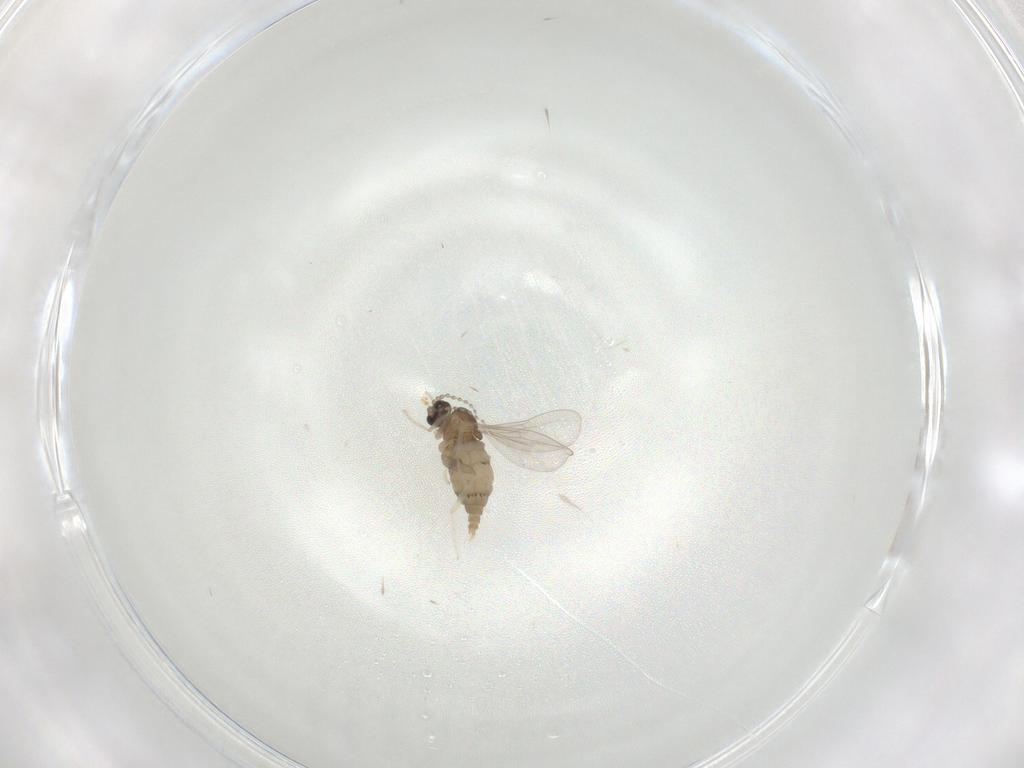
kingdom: Animalia
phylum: Arthropoda
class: Insecta
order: Diptera
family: Cecidomyiidae
